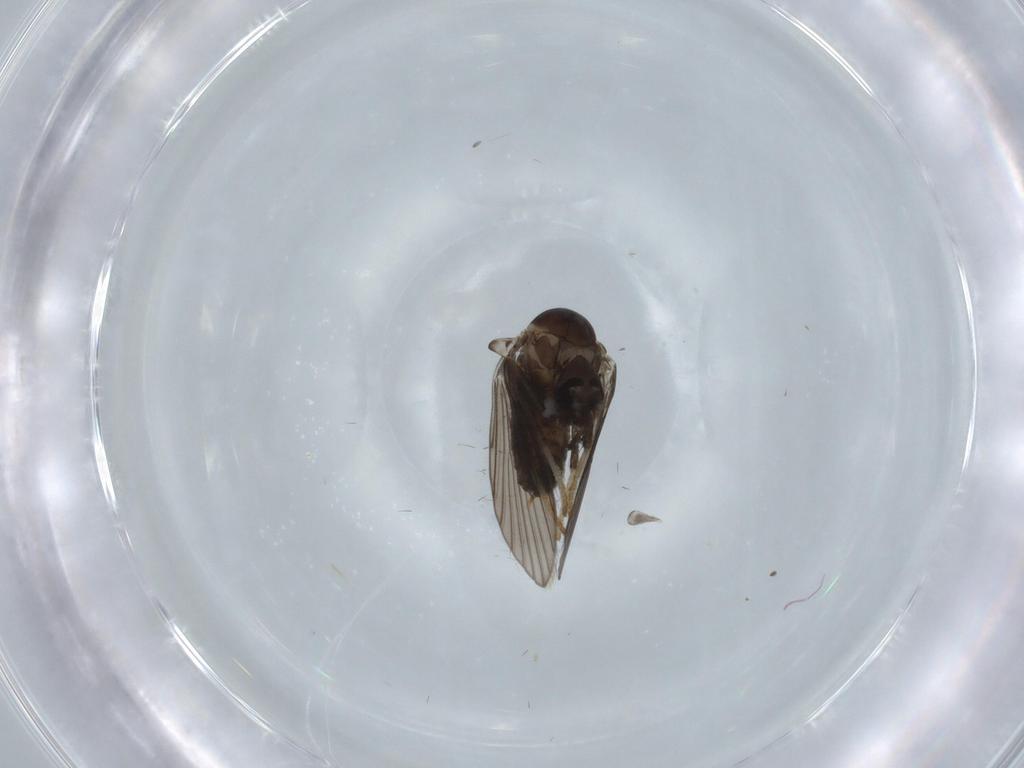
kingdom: Animalia
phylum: Arthropoda
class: Insecta
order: Diptera
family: Psychodidae
